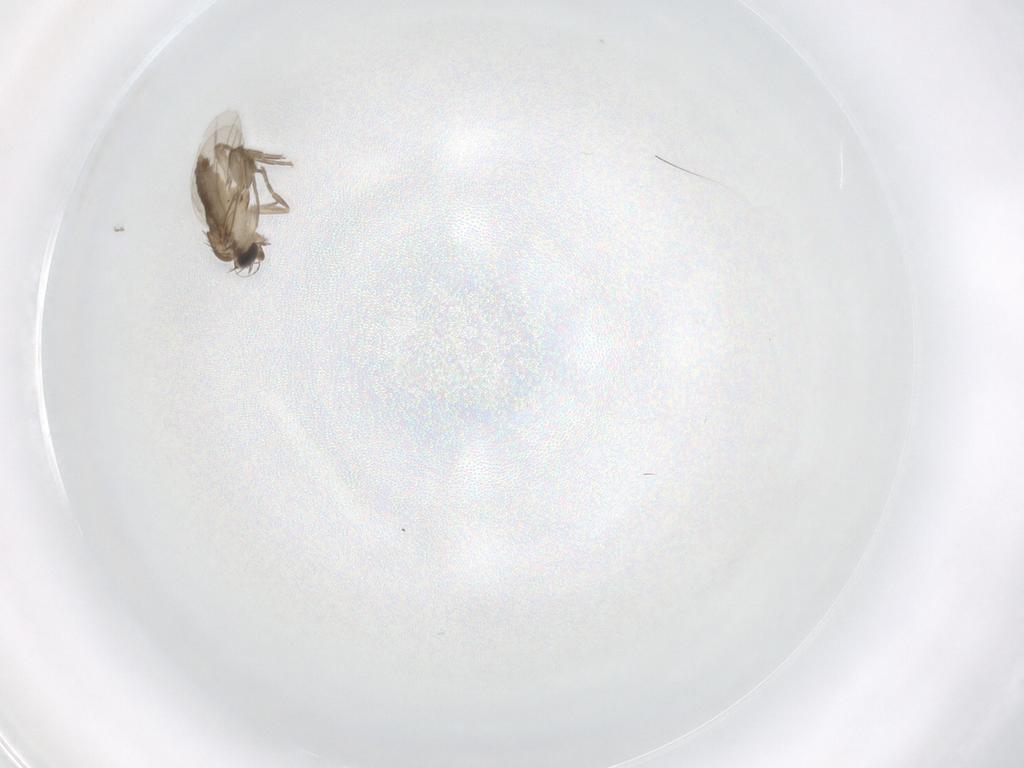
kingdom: Animalia
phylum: Arthropoda
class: Insecta
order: Diptera
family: Phoridae
